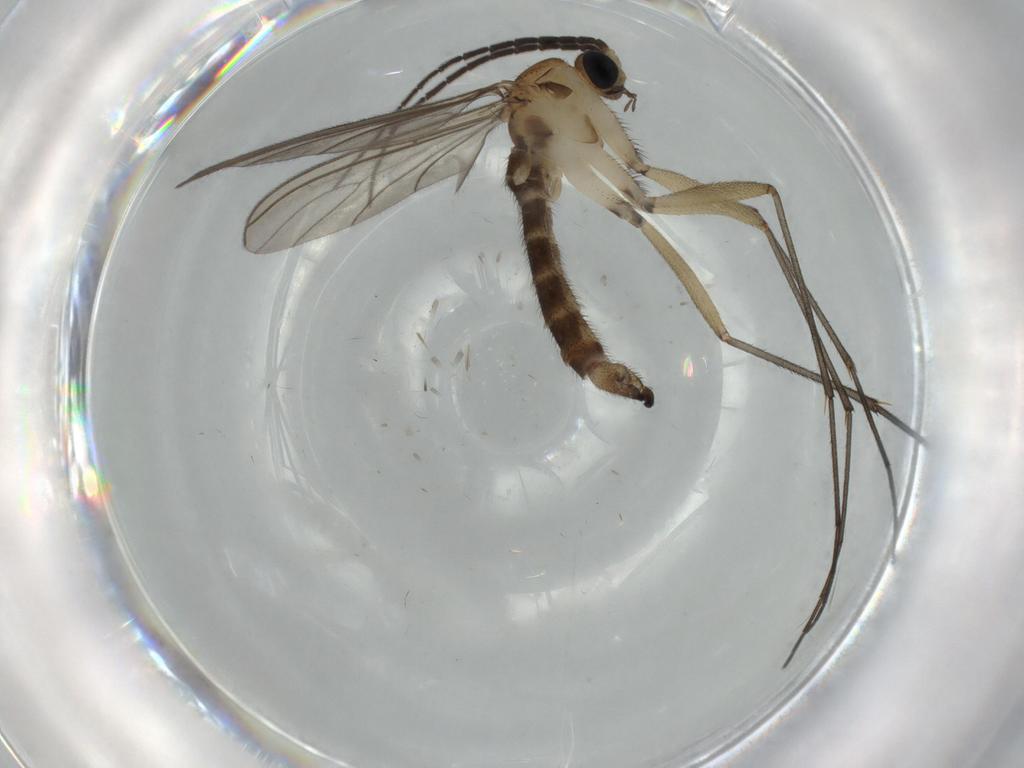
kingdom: Animalia
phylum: Arthropoda
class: Insecta
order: Diptera
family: Sciaridae
